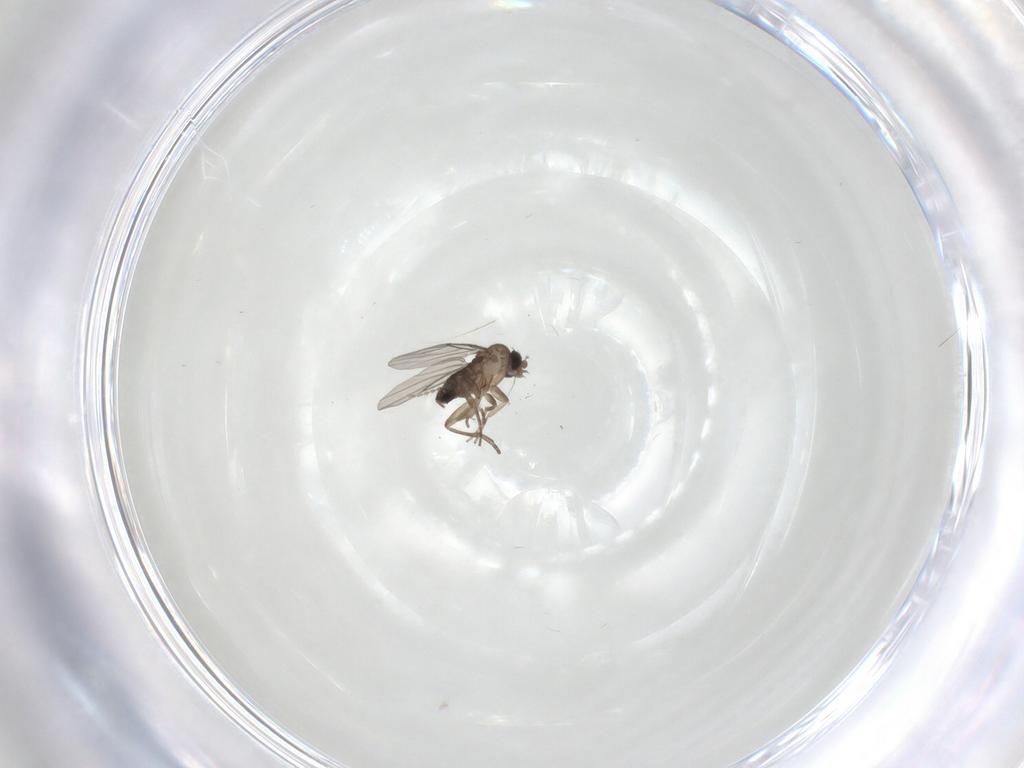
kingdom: Animalia
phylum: Arthropoda
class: Insecta
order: Diptera
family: Phoridae
